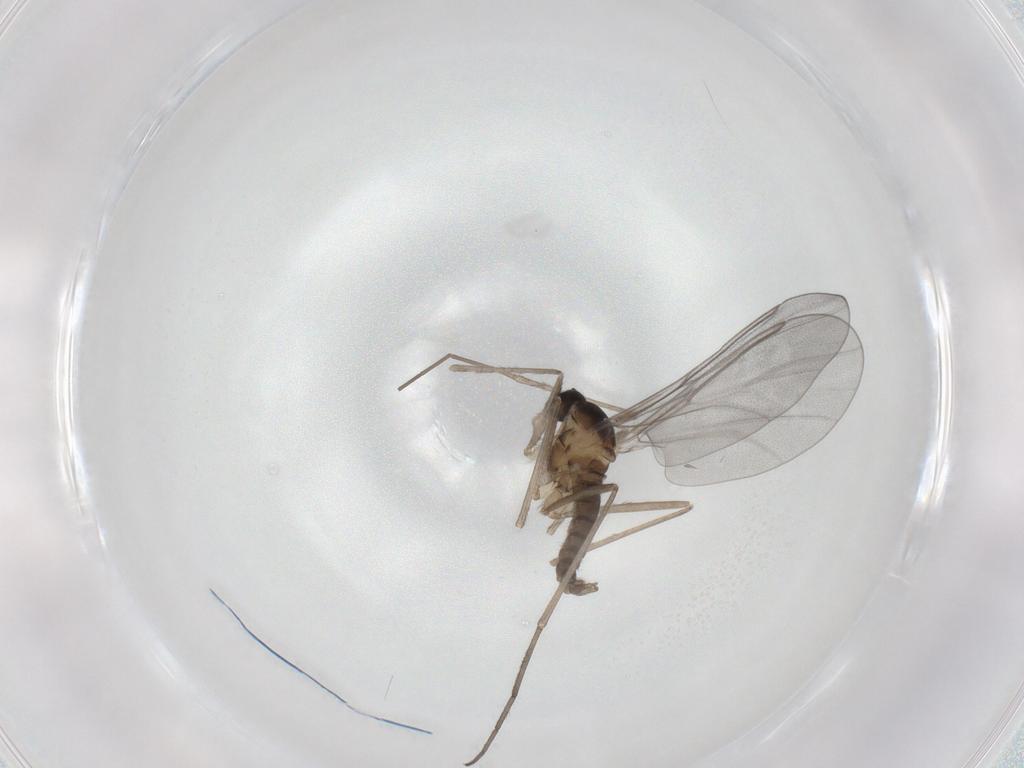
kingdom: Animalia
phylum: Arthropoda
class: Insecta
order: Diptera
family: Cecidomyiidae
